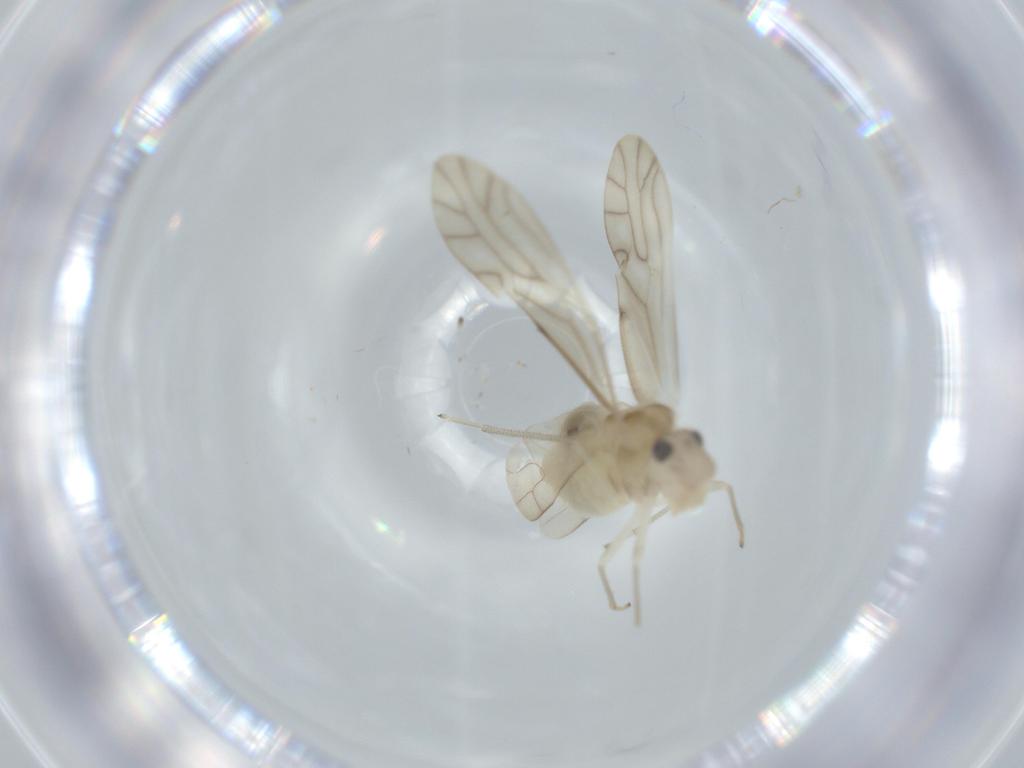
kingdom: Animalia
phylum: Arthropoda
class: Insecta
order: Psocodea
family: Caeciliusidae
